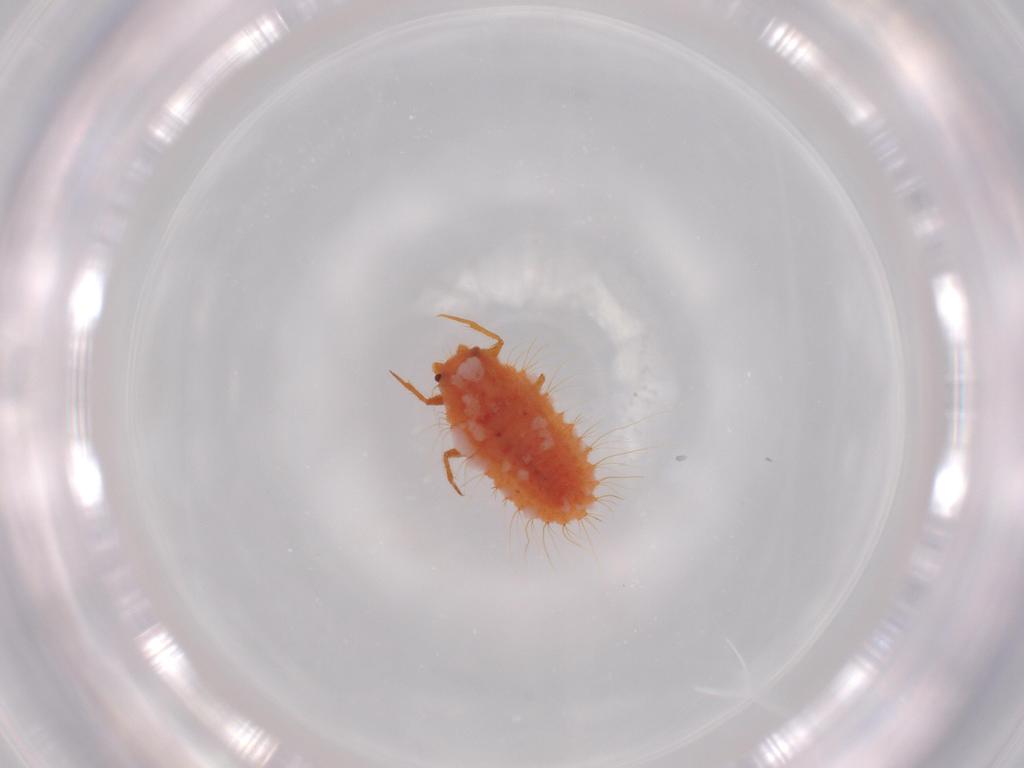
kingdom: Animalia
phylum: Arthropoda
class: Insecta
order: Hemiptera
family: Coccoidea_incertae_sedis
